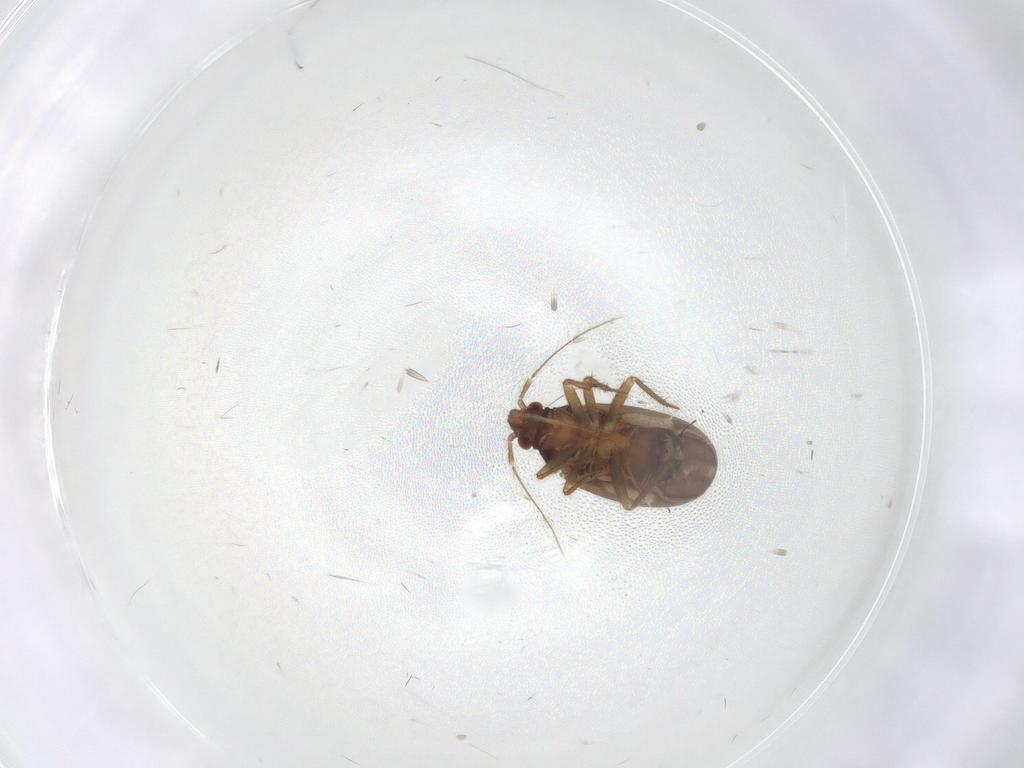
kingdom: Animalia
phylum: Arthropoda
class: Insecta
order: Hemiptera
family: Ceratocombidae
